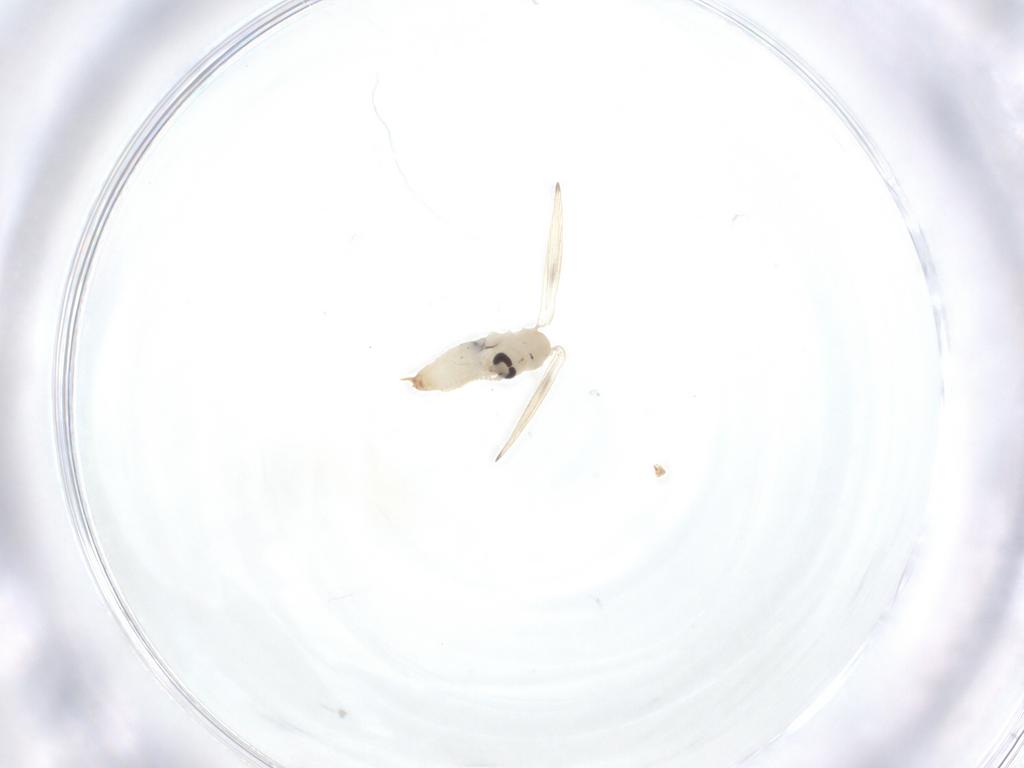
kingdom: Animalia
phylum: Arthropoda
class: Insecta
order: Diptera
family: Psychodidae
